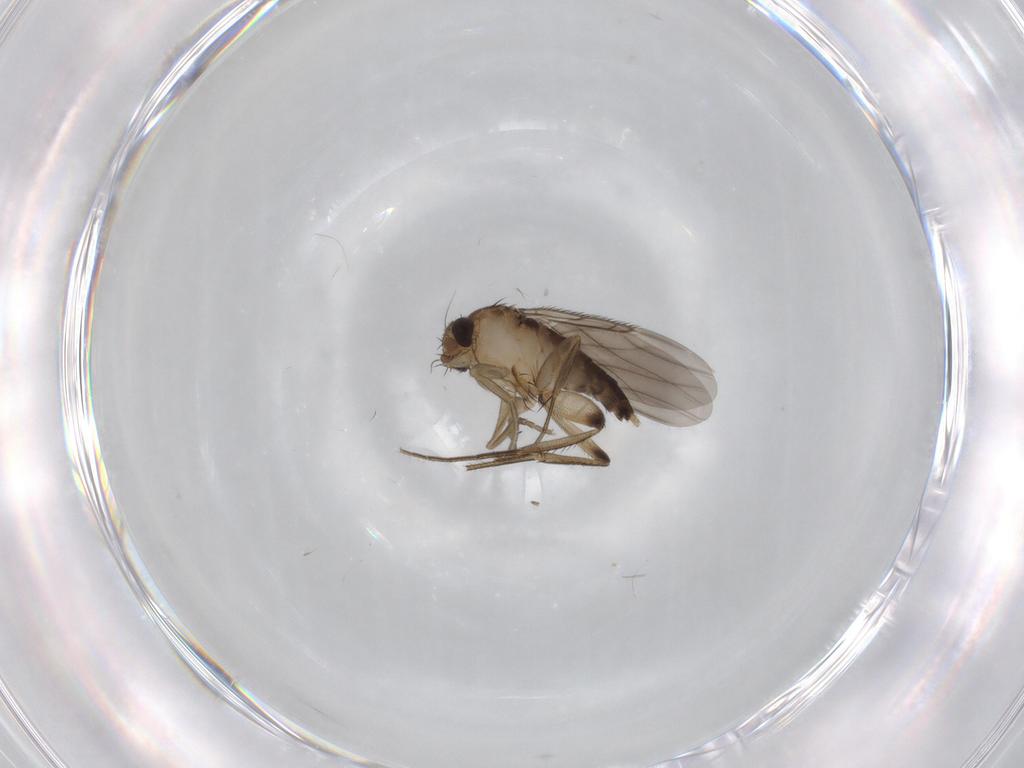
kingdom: Animalia
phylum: Arthropoda
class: Insecta
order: Diptera
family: Phoridae
